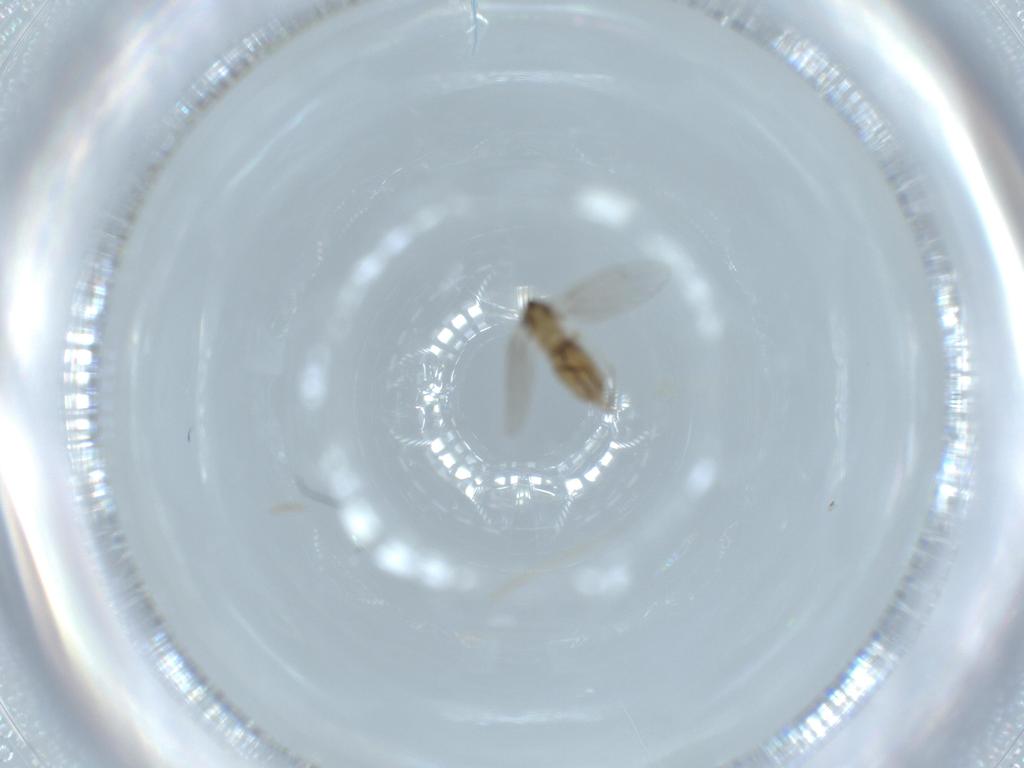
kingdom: Animalia
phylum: Arthropoda
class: Insecta
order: Diptera
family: Psychodidae
